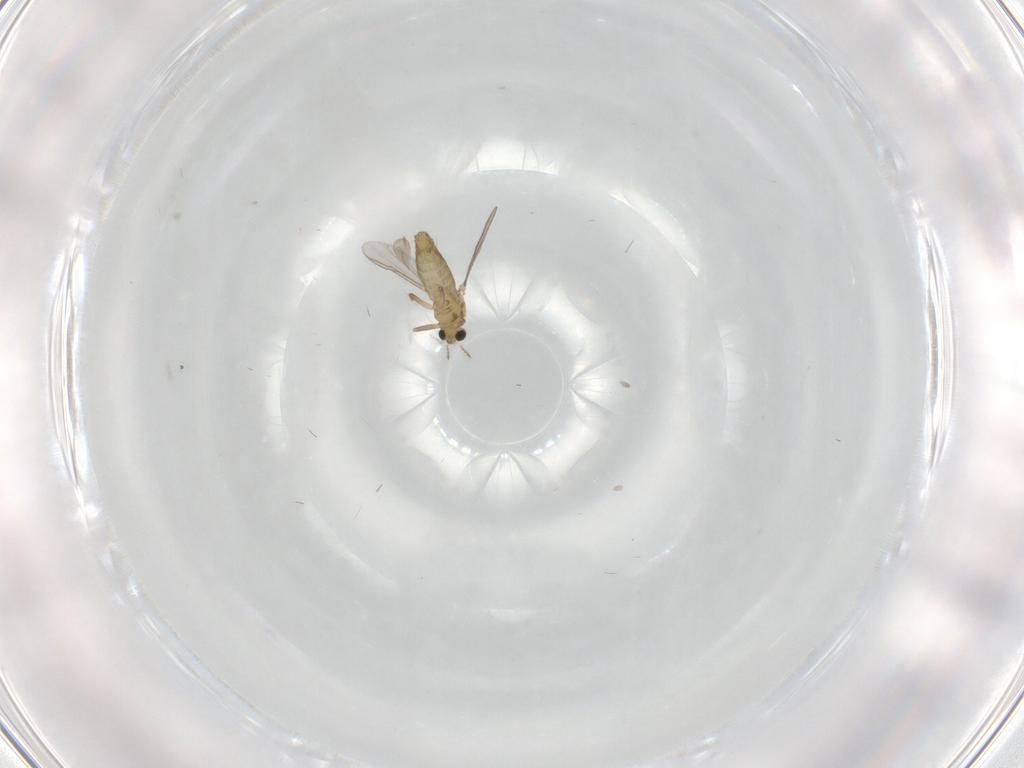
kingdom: Animalia
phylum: Arthropoda
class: Insecta
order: Diptera
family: Chironomidae
